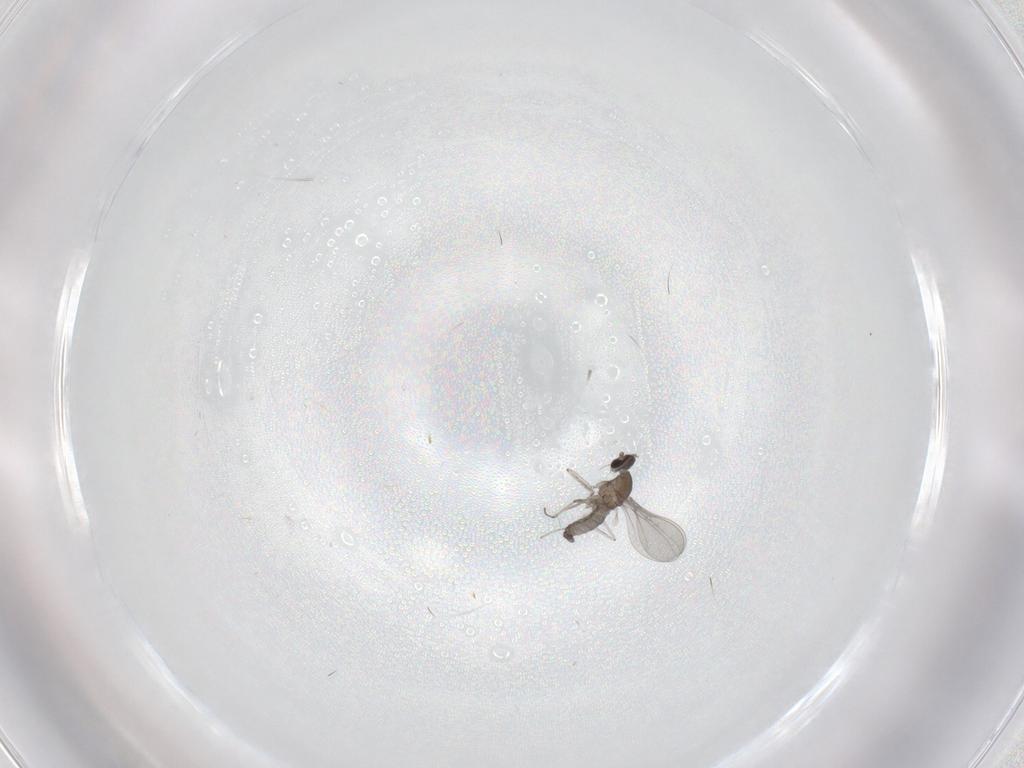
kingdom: Animalia
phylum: Arthropoda
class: Insecta
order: Diptera
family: Cecidomyiidae
